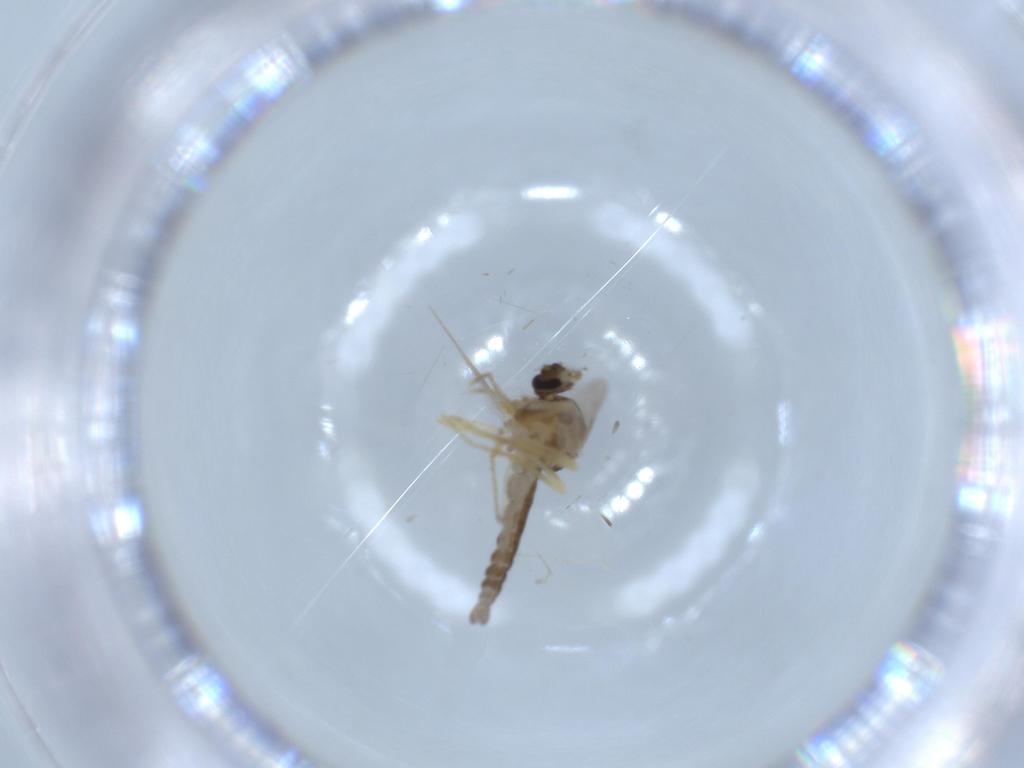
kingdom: Animalia
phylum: Arthropoda
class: Insecta
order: Diptera
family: Ceratopogonidae
